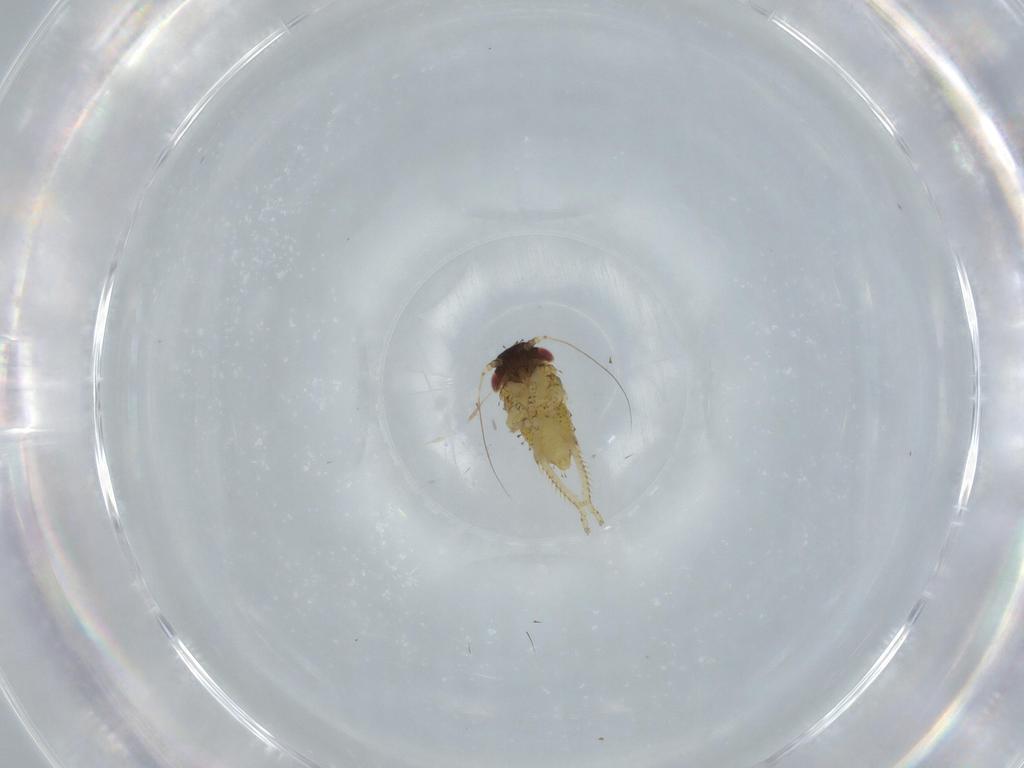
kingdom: Animalia
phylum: Arthropoda
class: Insecta
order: Hemiptera
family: Cicadellidae
